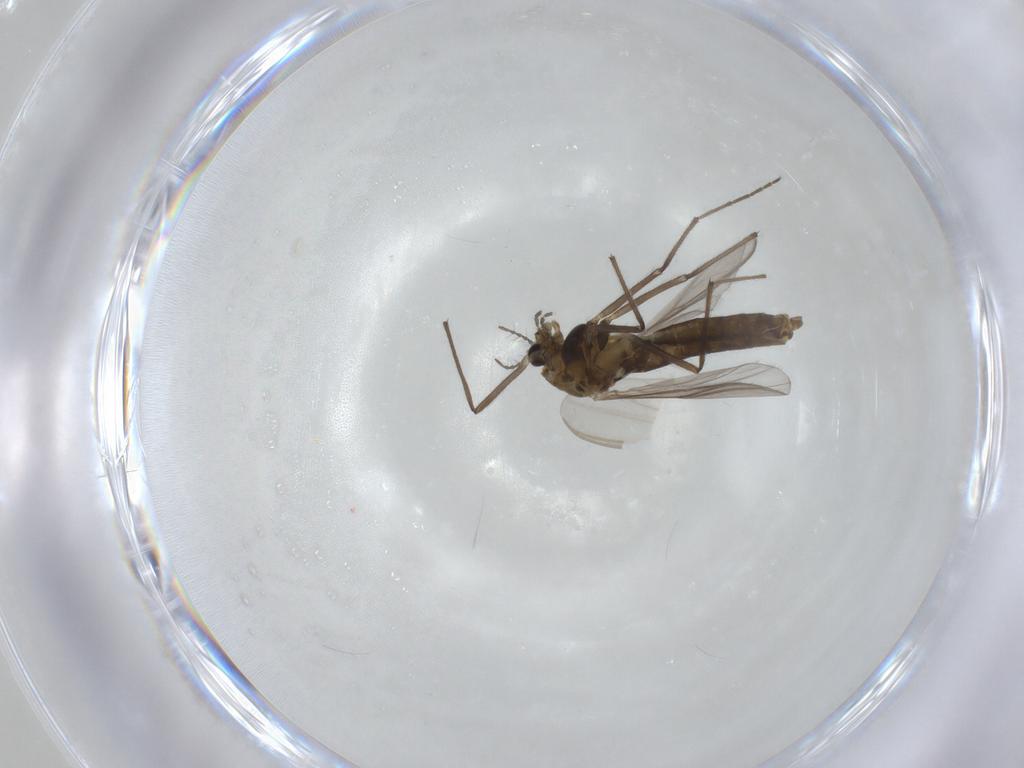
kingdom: Animalia
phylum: Arthropoda
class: Insecta
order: Diptera
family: Chironomidae
